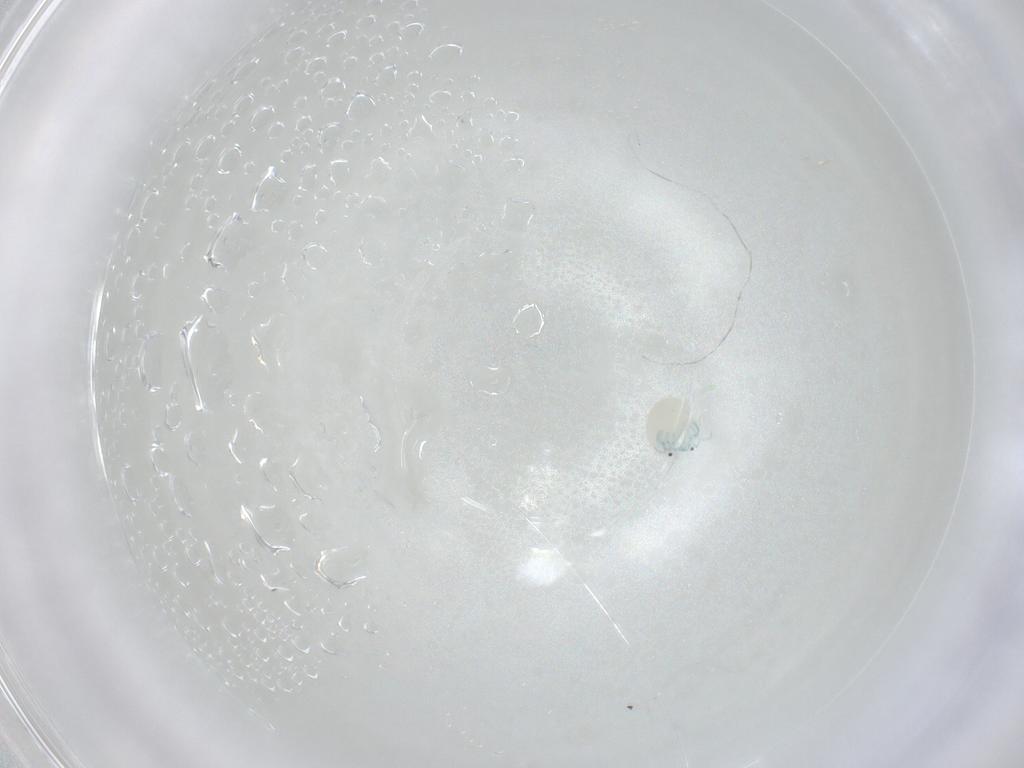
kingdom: Animalia
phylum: Arthropoda
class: Arachnida
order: Trombidiformes
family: Arrenuridae
